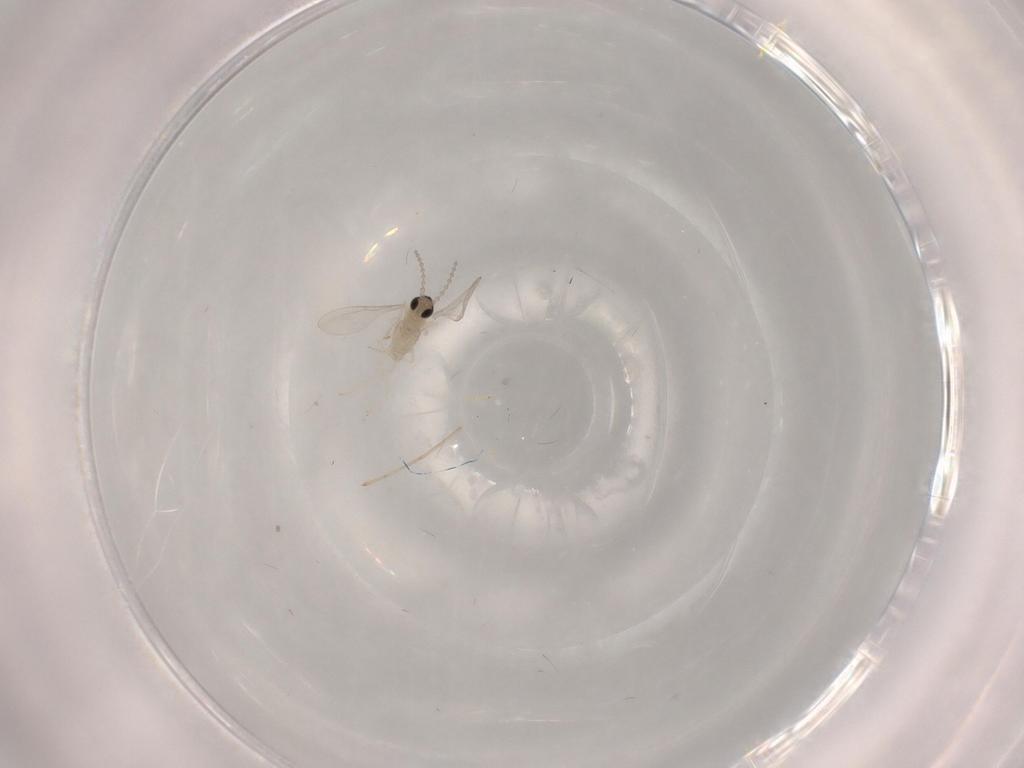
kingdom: Animalia
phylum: Arthropoda
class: Insecta
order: Diptera
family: Cecidomyiidae
